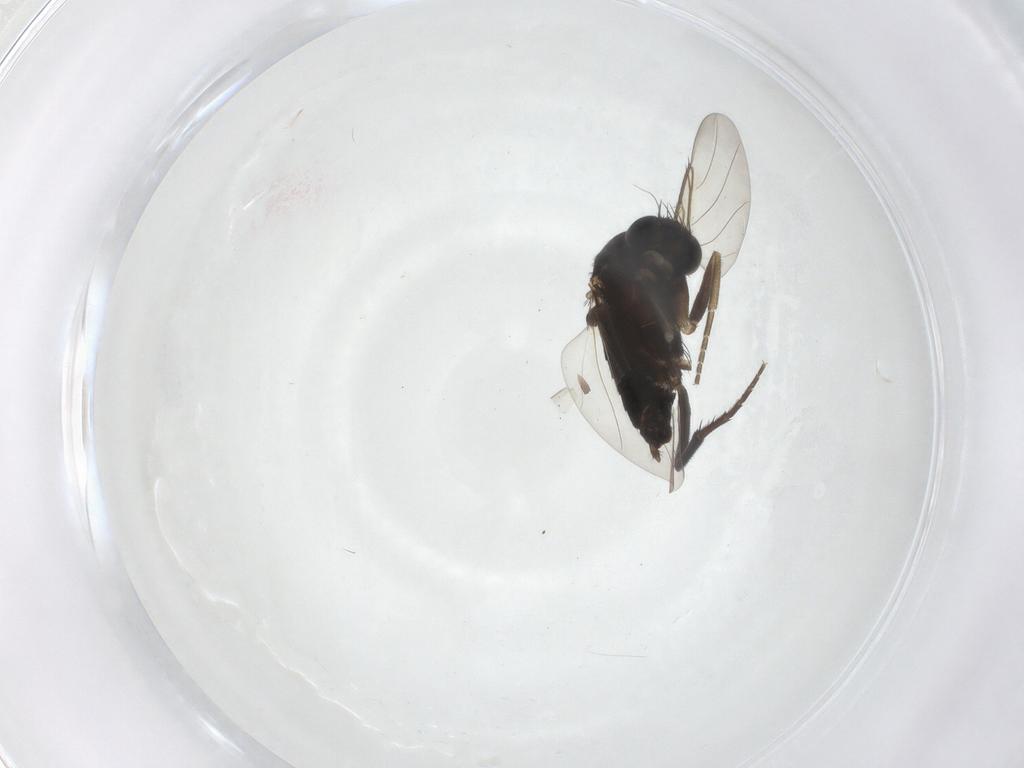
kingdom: Animalia
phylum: Arthropoda
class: Insecta
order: Diptera
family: Phoridae
